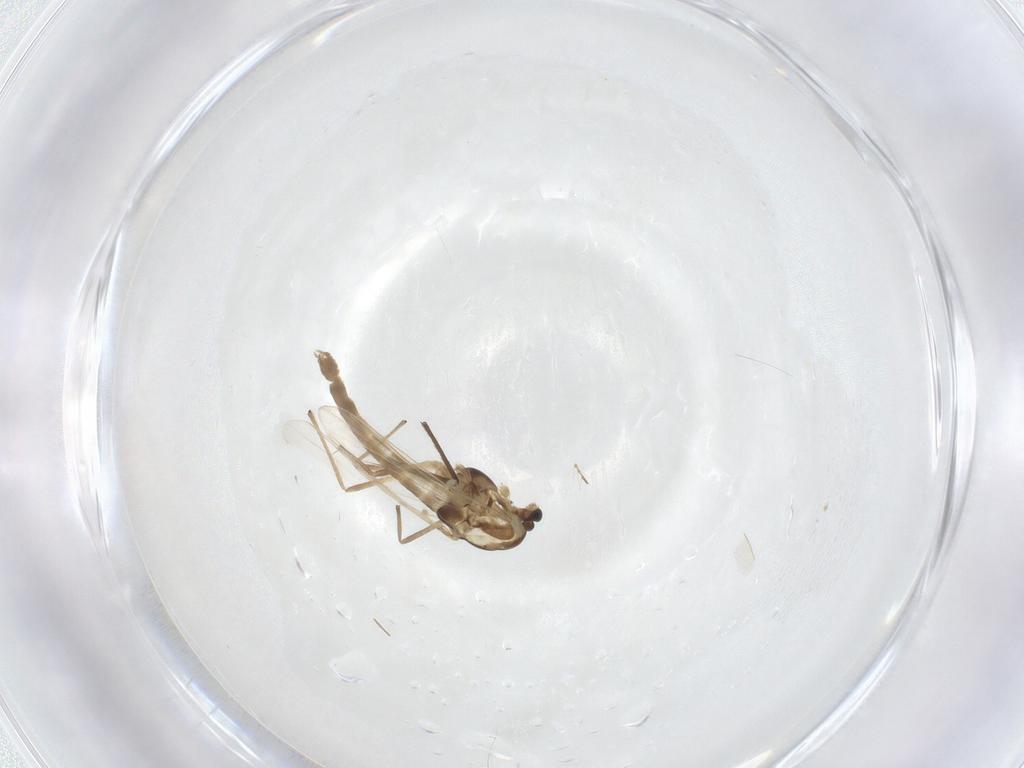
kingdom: Animalia
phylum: Arthropoda
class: Insecta
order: Diptera
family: Chironomidae
